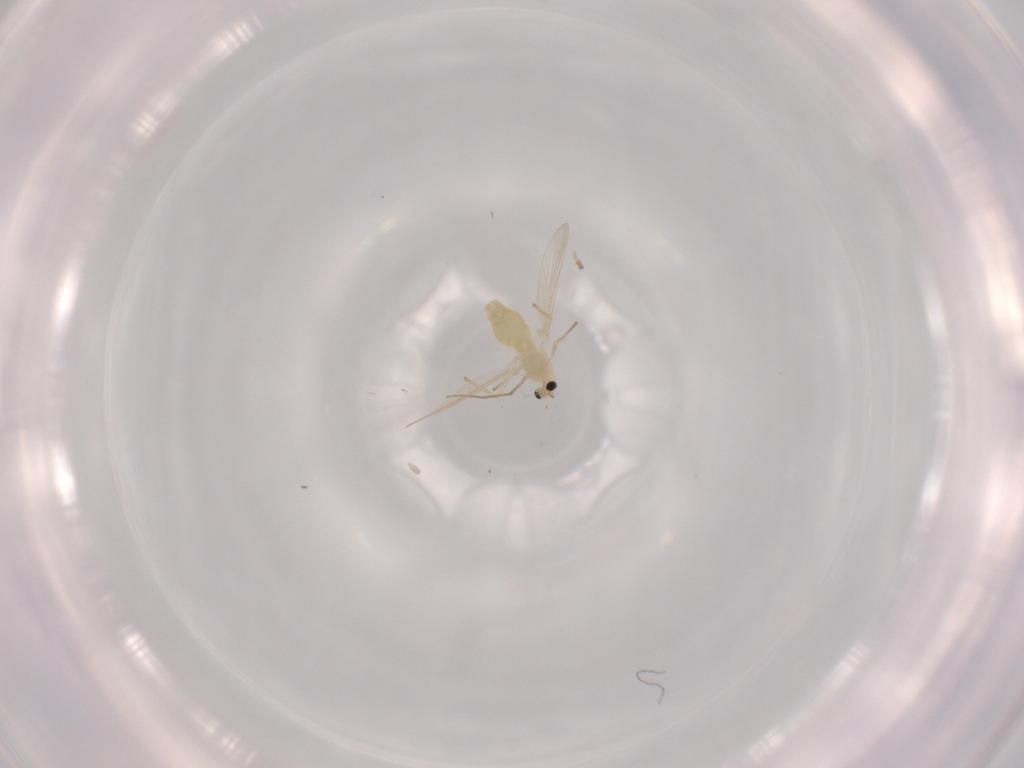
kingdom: Animalia
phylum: Arthropoda
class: Insecta
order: Diptera
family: Chironomidae
